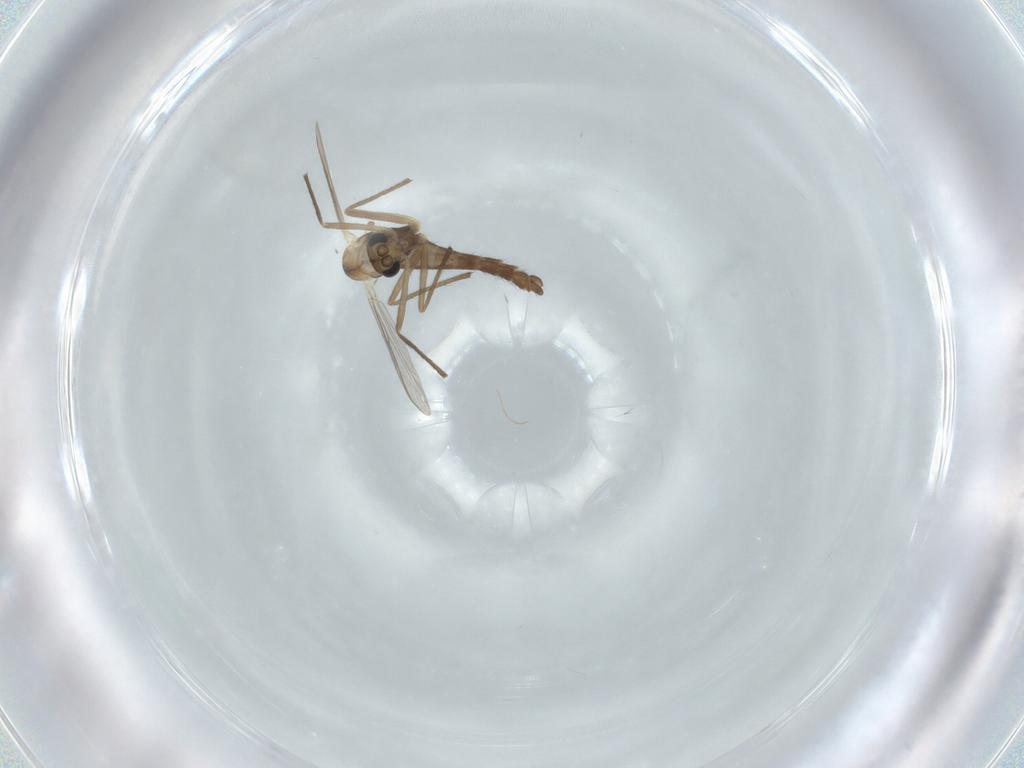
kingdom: Animalia
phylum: Arthropoda
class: Insecta
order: Diptera
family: Chironomidae
